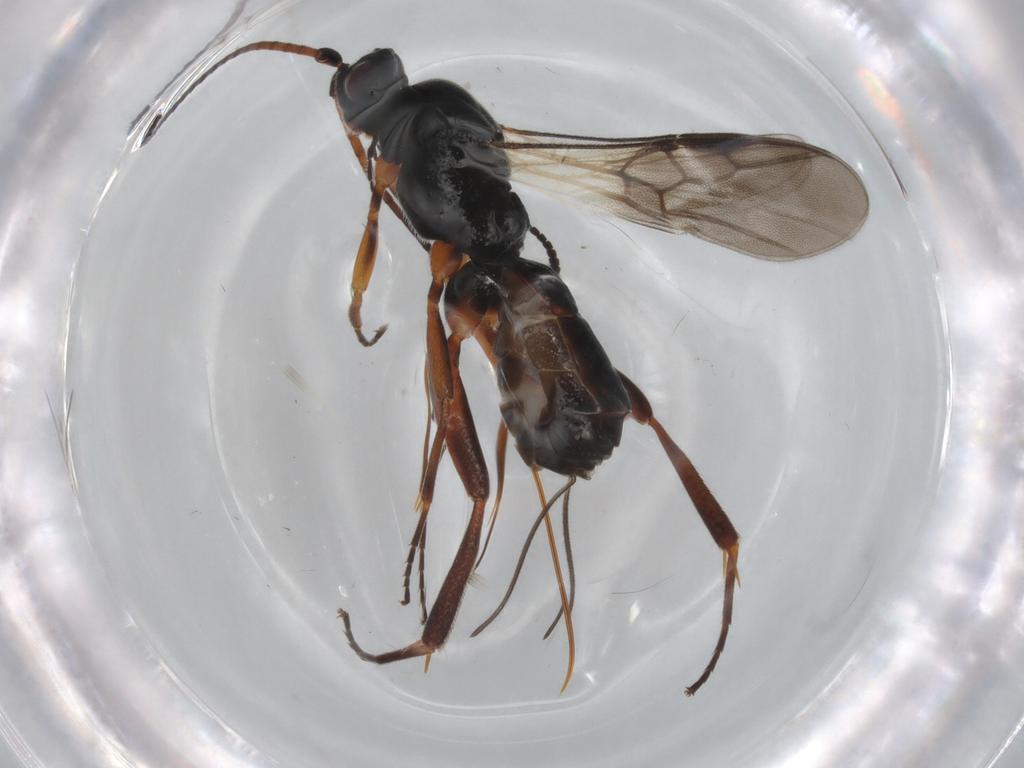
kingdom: Animalia
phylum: Arthropoda
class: Insecta
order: Hymenoptera
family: Braconidae
